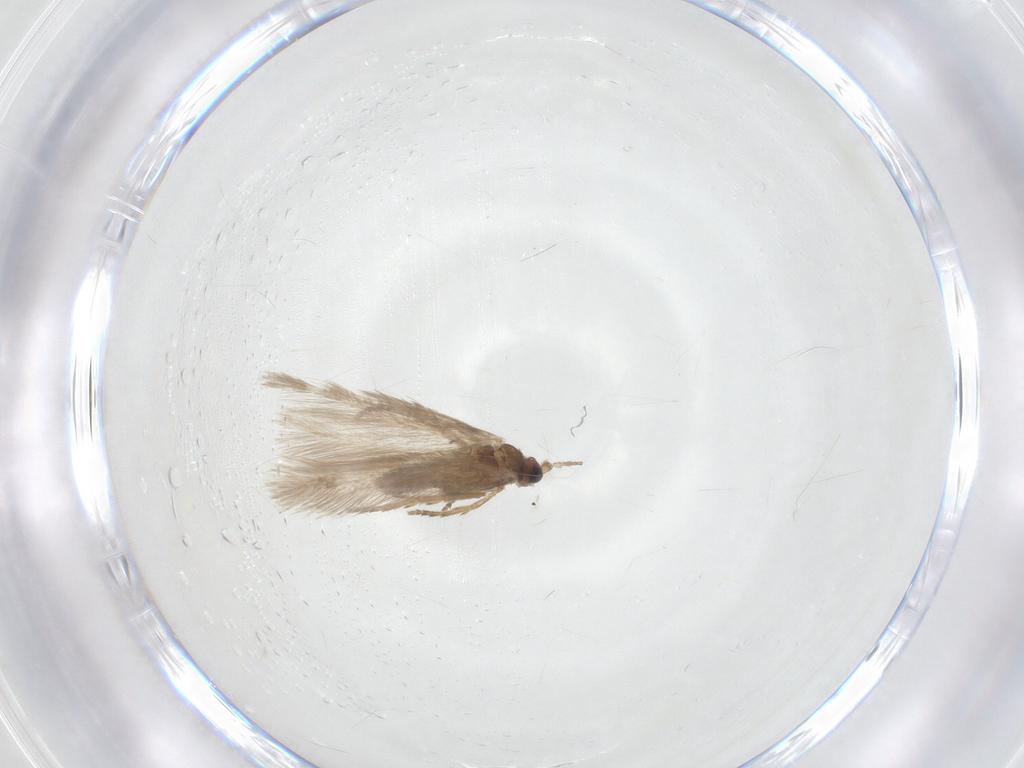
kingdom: Animalia
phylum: Arthropoda
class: Insecta
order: Lepidoptera
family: Nepticulidae
